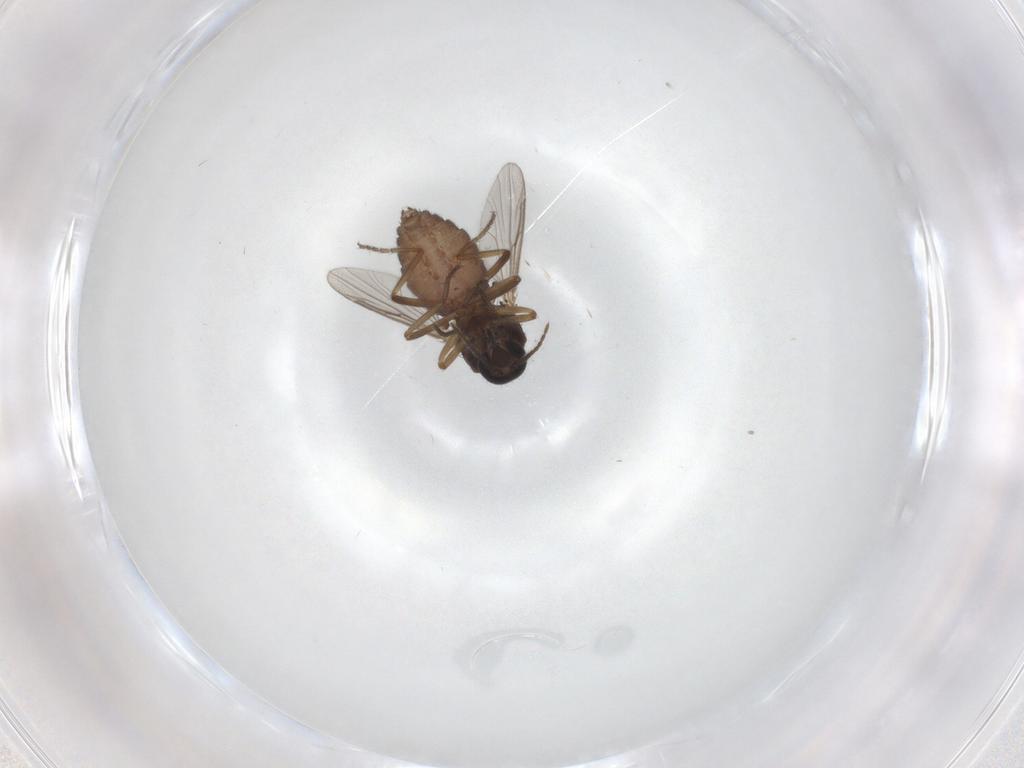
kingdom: Animalia
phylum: Arthropoda
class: Insecta
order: Diptera
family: Ceratopogonidae
